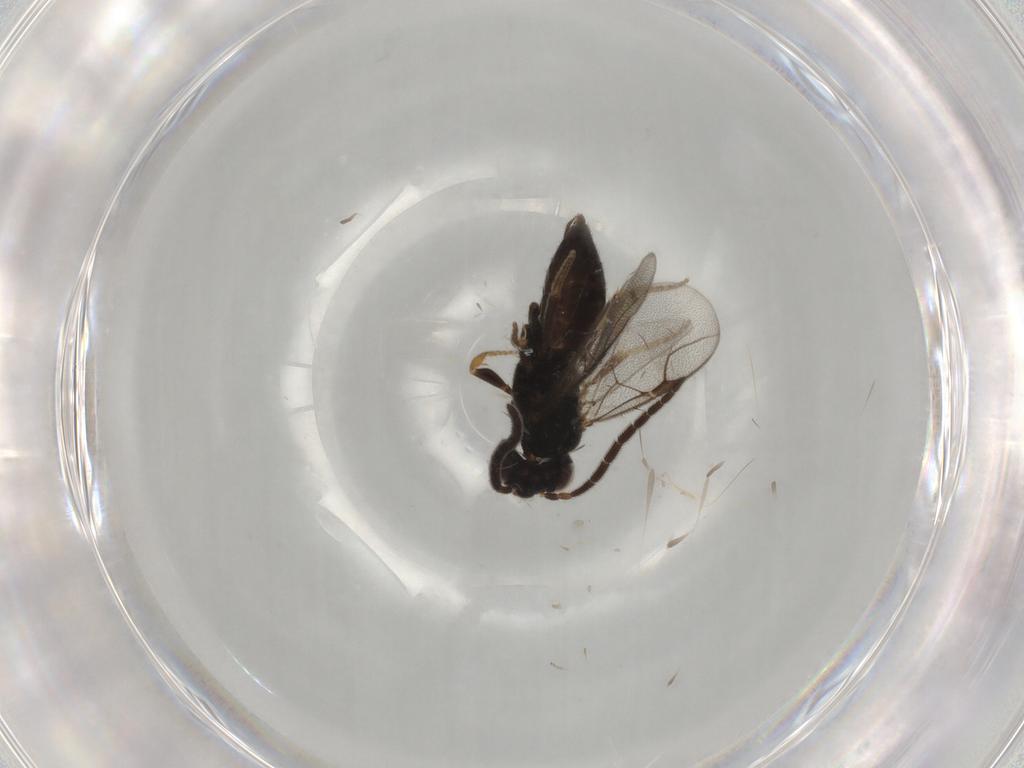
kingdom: Animalia
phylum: Arthropoda
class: Insecta
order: Hymenoptera
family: Dryinidae
